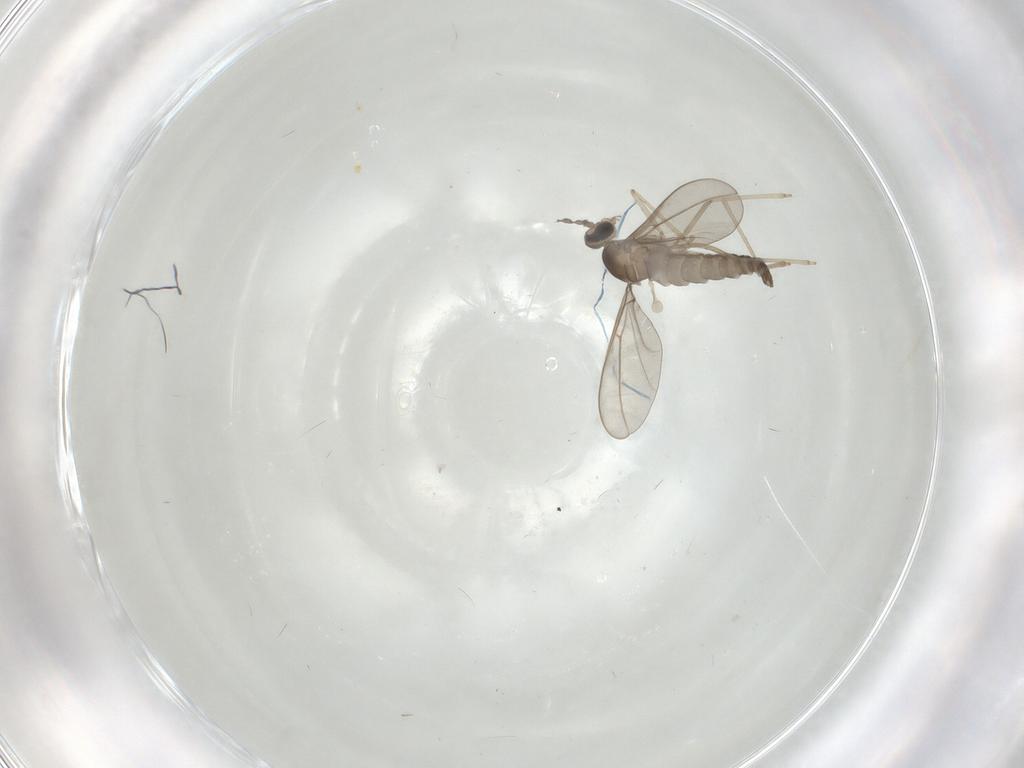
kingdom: Animalia
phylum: Arthropoda
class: Insecta
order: Diptera
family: Cecidomyiidae
